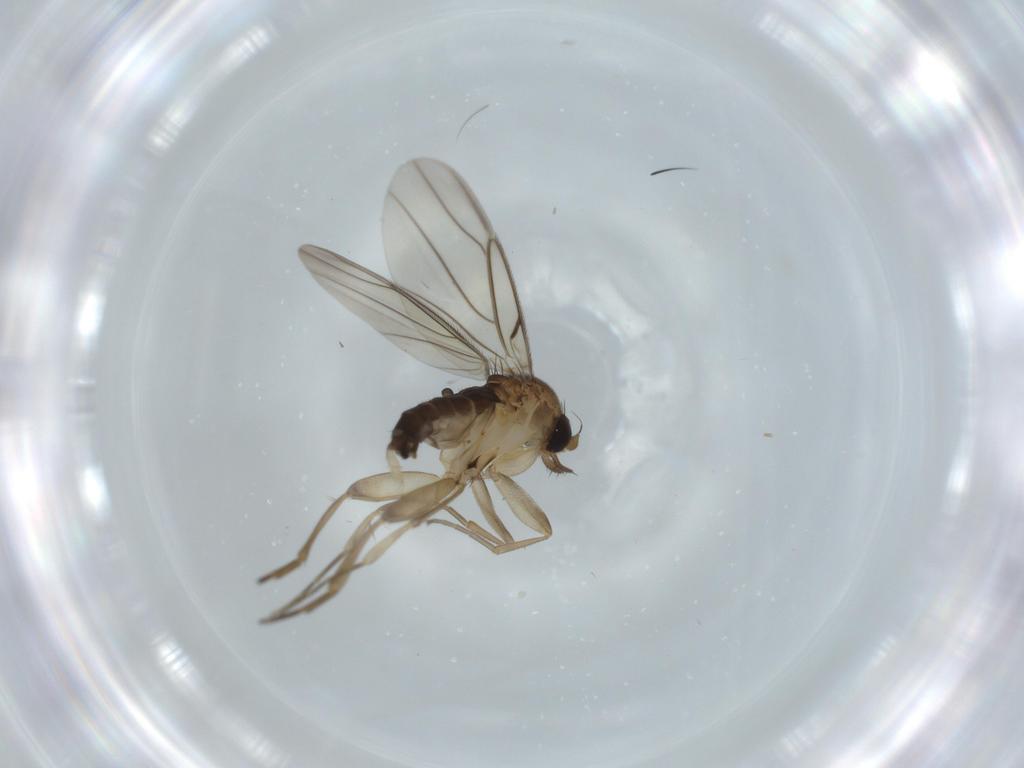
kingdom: Animalia
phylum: Arthropoda
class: Insecta
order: Diptera
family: Phoridae
